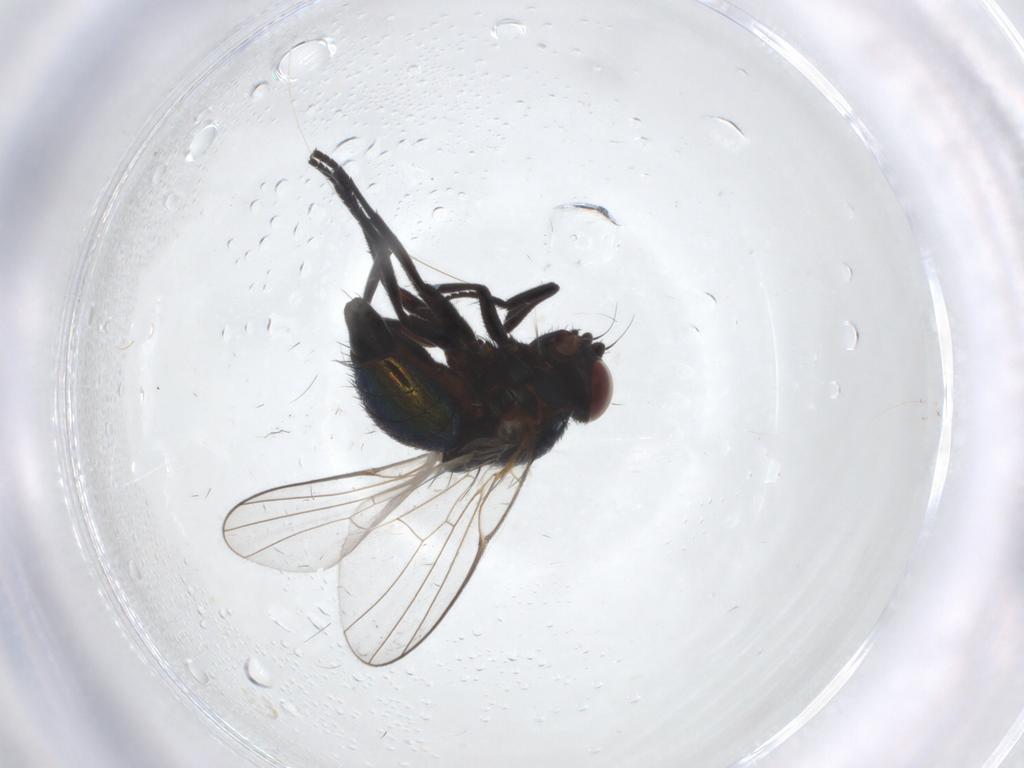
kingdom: Animalia
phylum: Arthropoda
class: Insecta
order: Diptera
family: Agromyzidae
